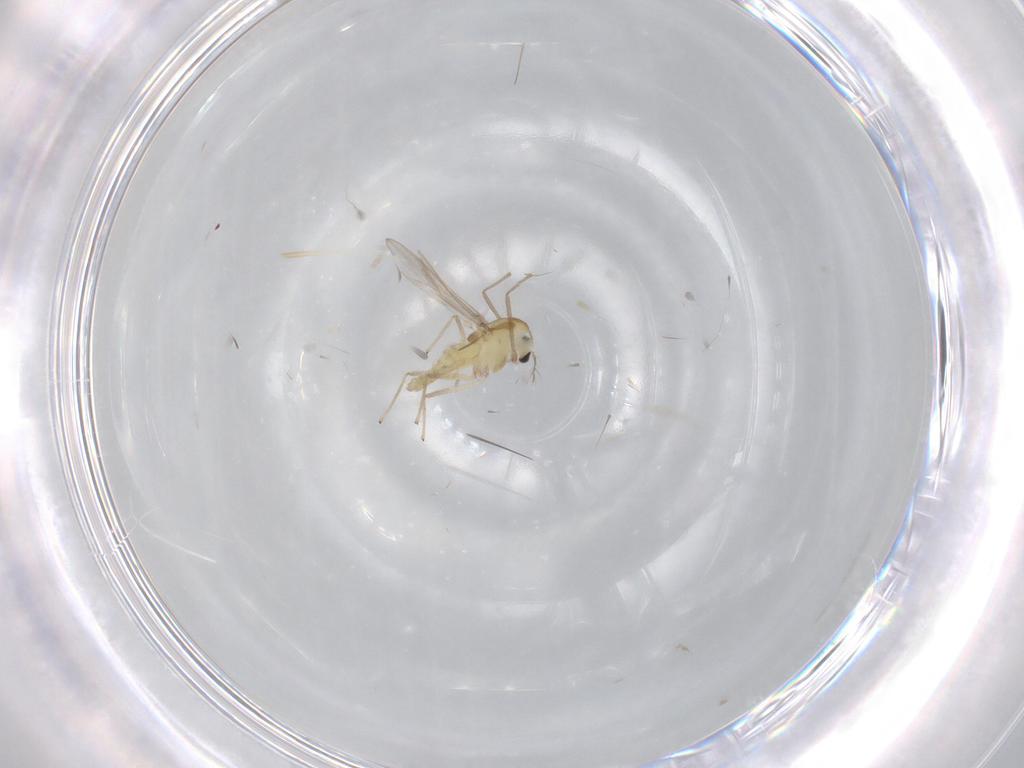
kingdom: Animalia
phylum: Arthropoda
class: Insecta
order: Diptera
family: Chironomidae
